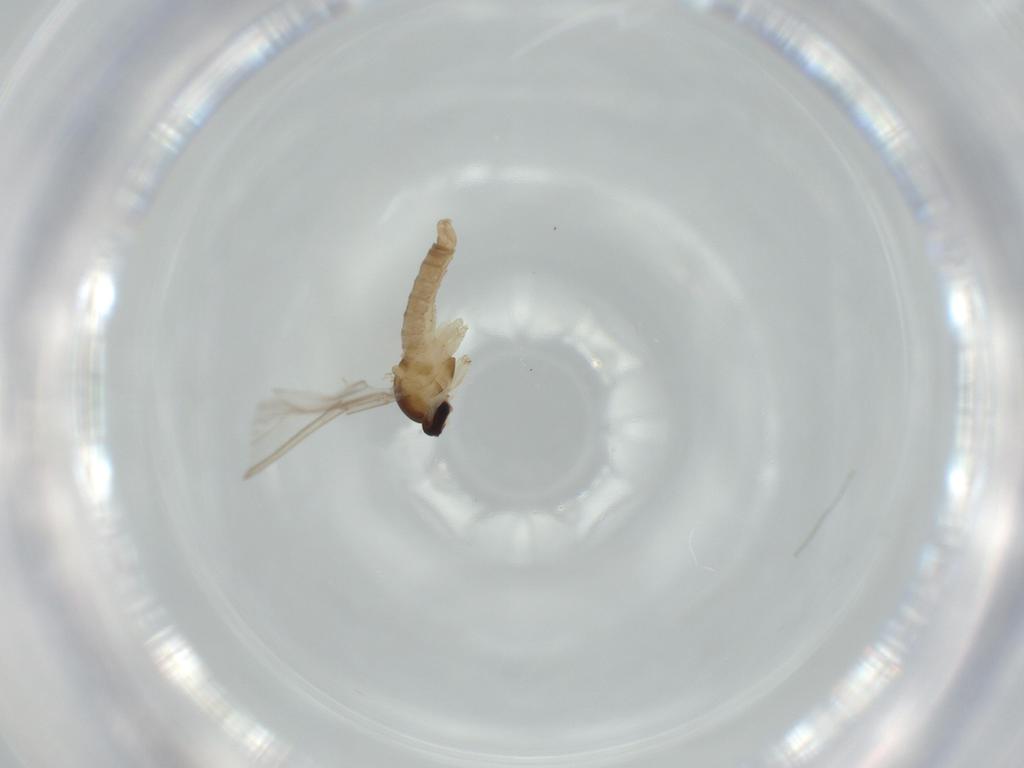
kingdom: Animalia
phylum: Arthropoda
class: Insecta
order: Diptera
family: Cecidomyiidae
